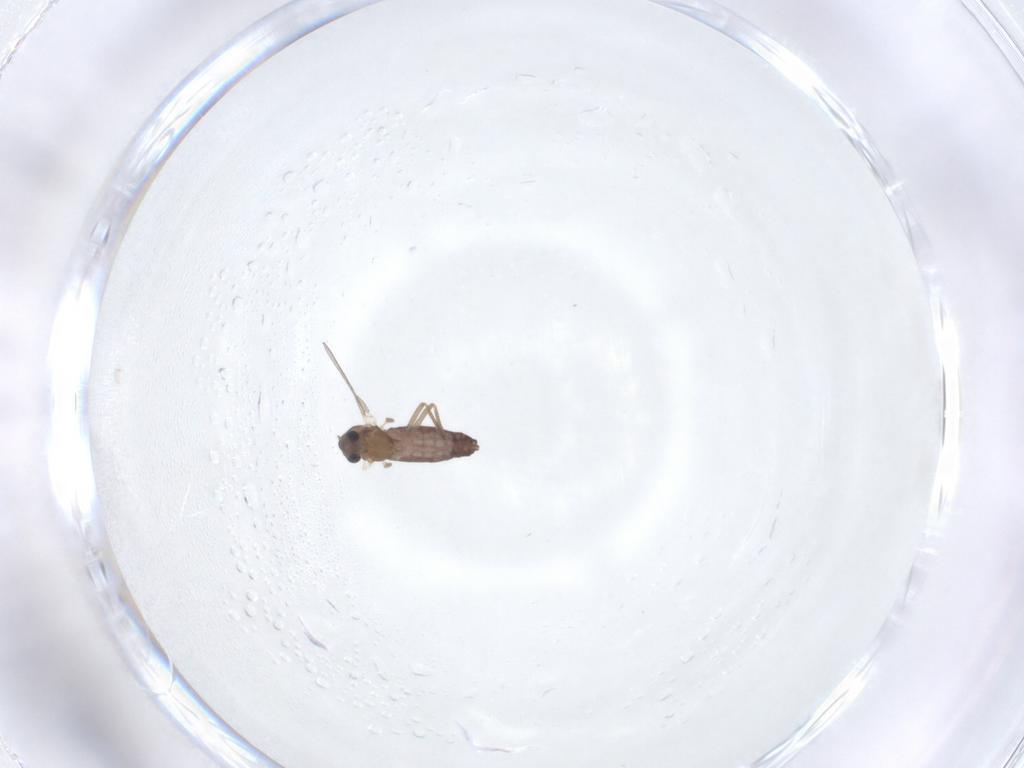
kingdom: Animalia
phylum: Arthropoda
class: Insecta
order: Diptera
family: Chironomidae
